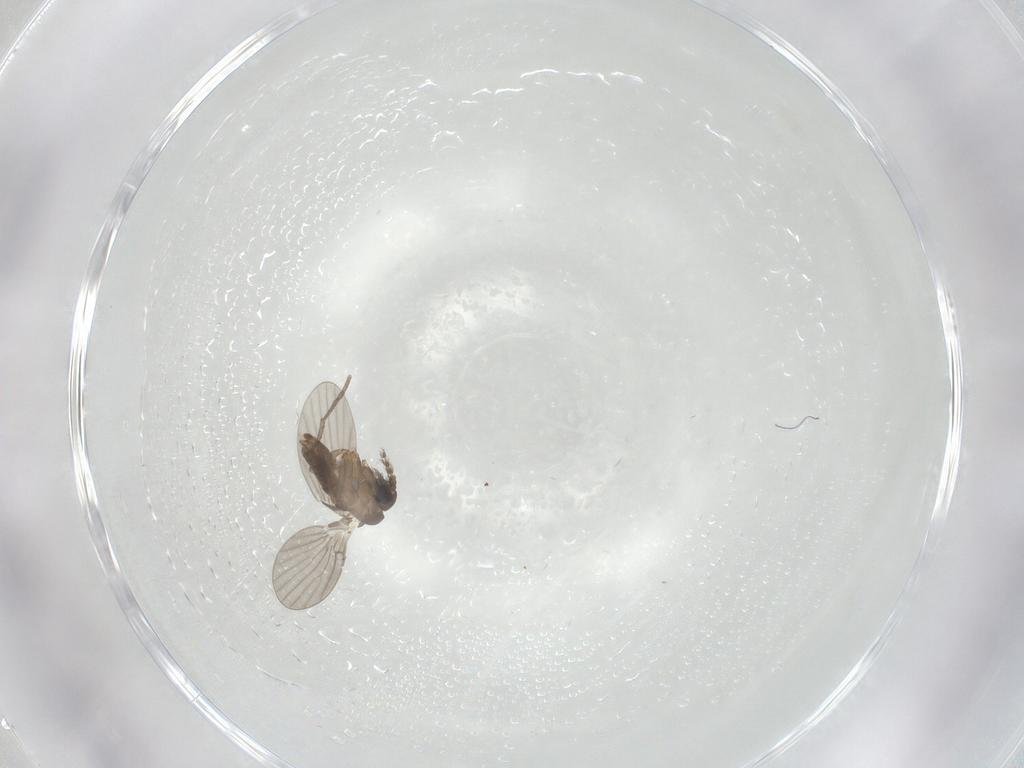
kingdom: Animalia
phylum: Arthropoda
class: Insecta
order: Diptera
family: Psychodidae
